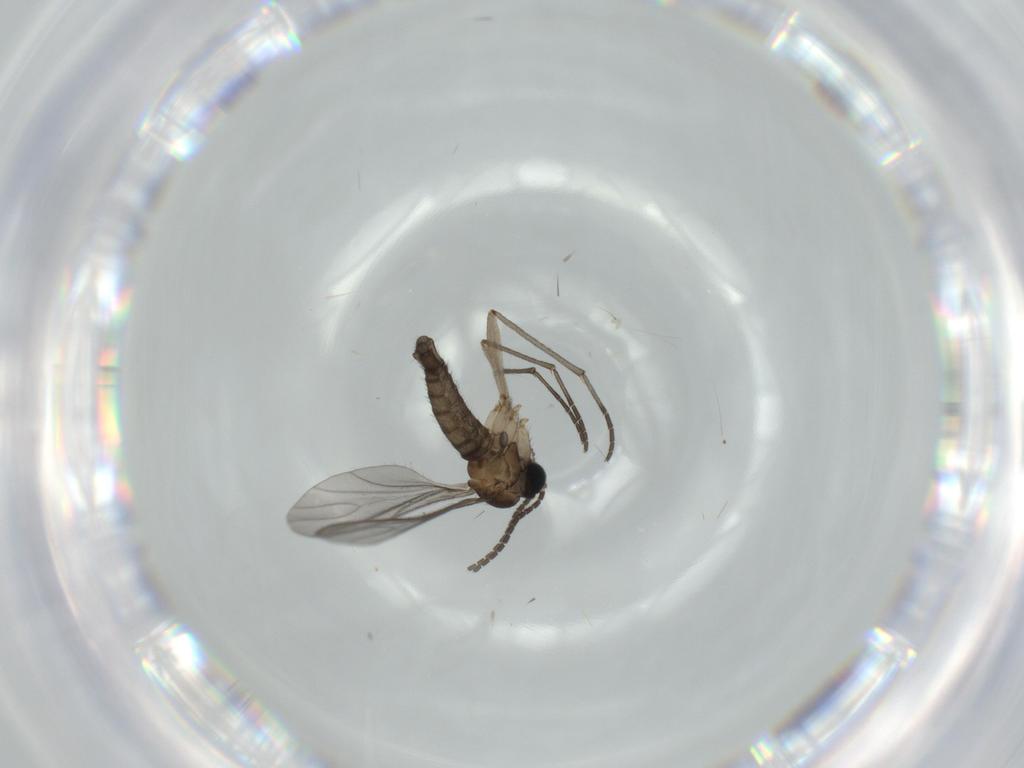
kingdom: Animalia
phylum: Arthropoda
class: Insecta
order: Diptera
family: Sciaridae
